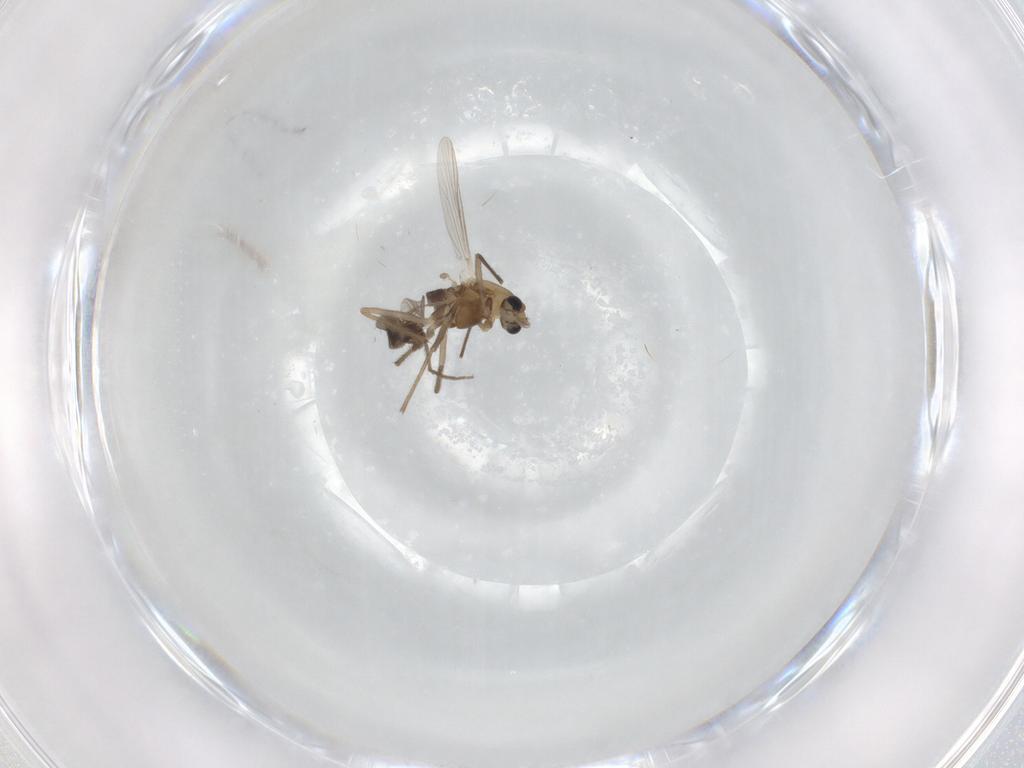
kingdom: Animalia
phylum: Arthropoda
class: Insecta
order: Diptera
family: Chironomidae
